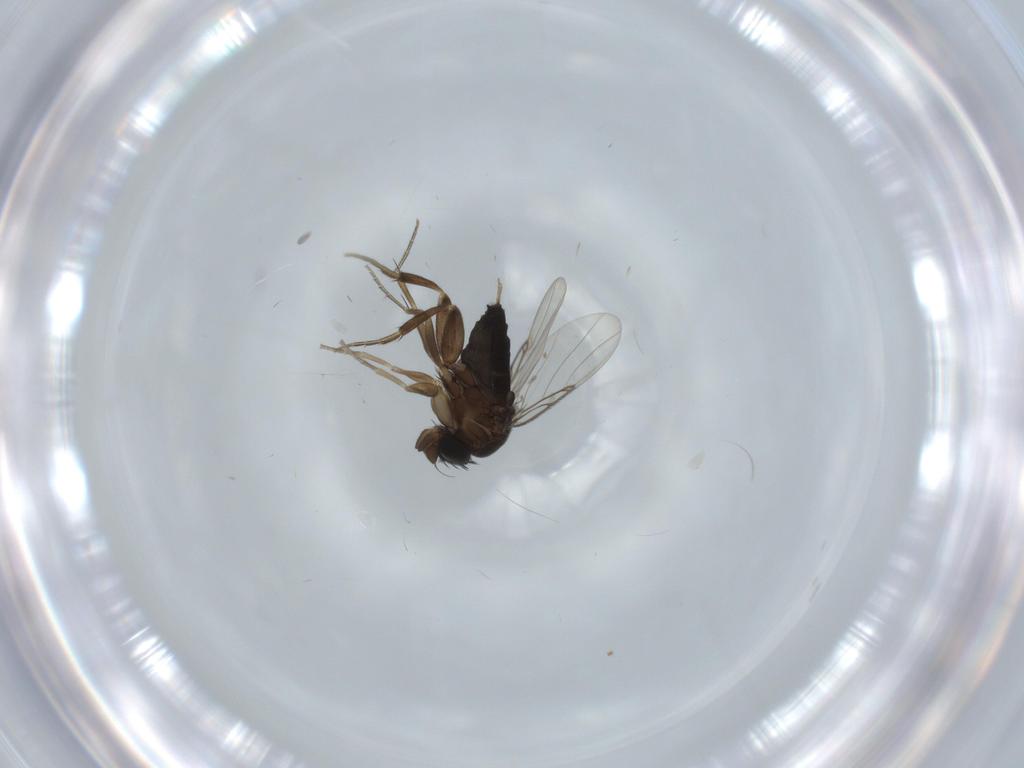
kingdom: Animalia
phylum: Arthropoda
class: Insecta
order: Diptera
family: Phoridae
